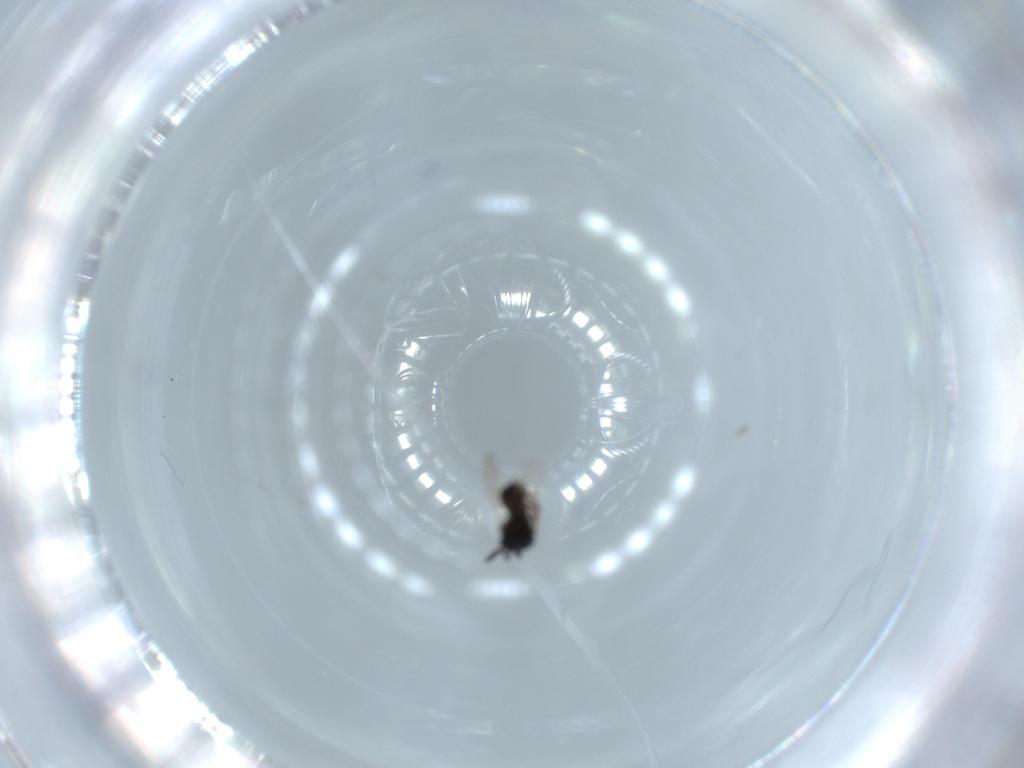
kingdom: Animalia
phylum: Arthropoda
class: Insecta
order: Hymenoptera
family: Scelionidae
